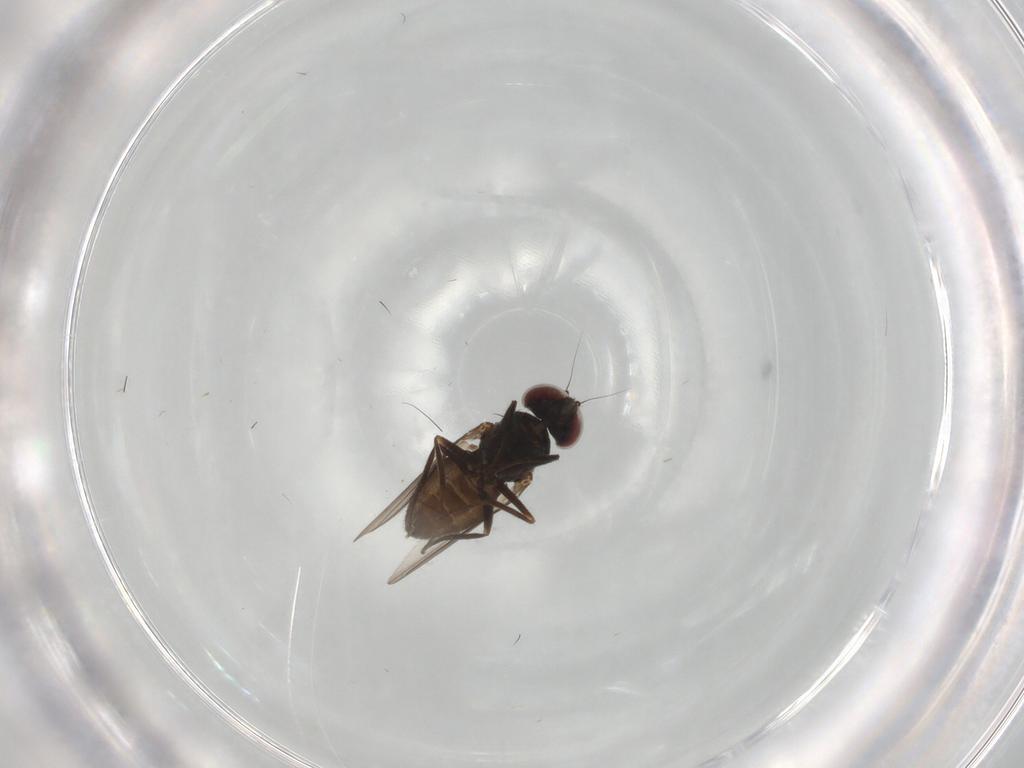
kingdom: Animalia
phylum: Arthropoda
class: Insecta
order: Diptera
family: Dolichopodidae
